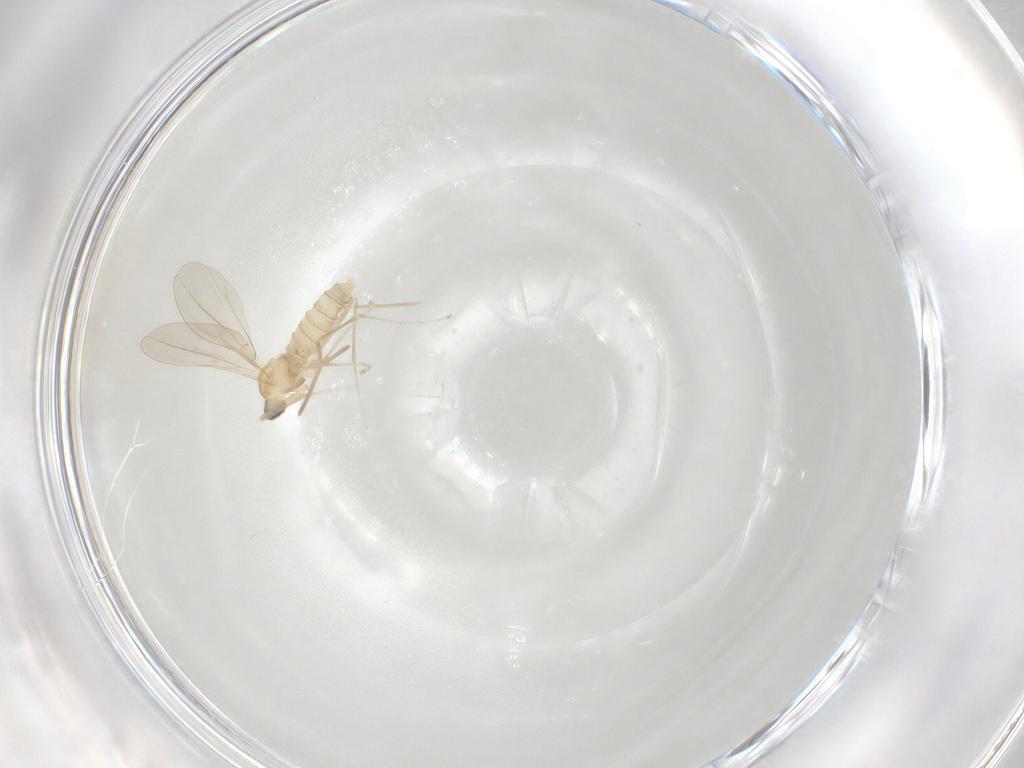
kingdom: Animalia
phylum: Arthropoda
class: Insecta
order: Diptera
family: Cecidomyiidae
